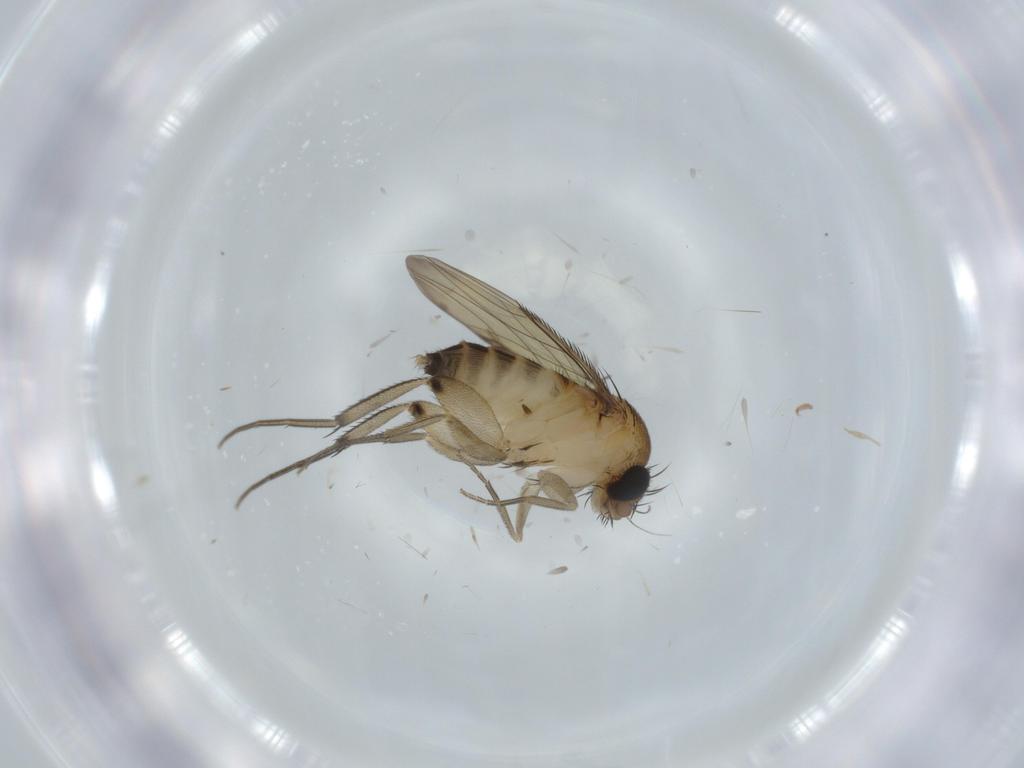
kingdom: Animalia
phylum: Arthropoda
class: Insecta
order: Diptera
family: Phoridae
